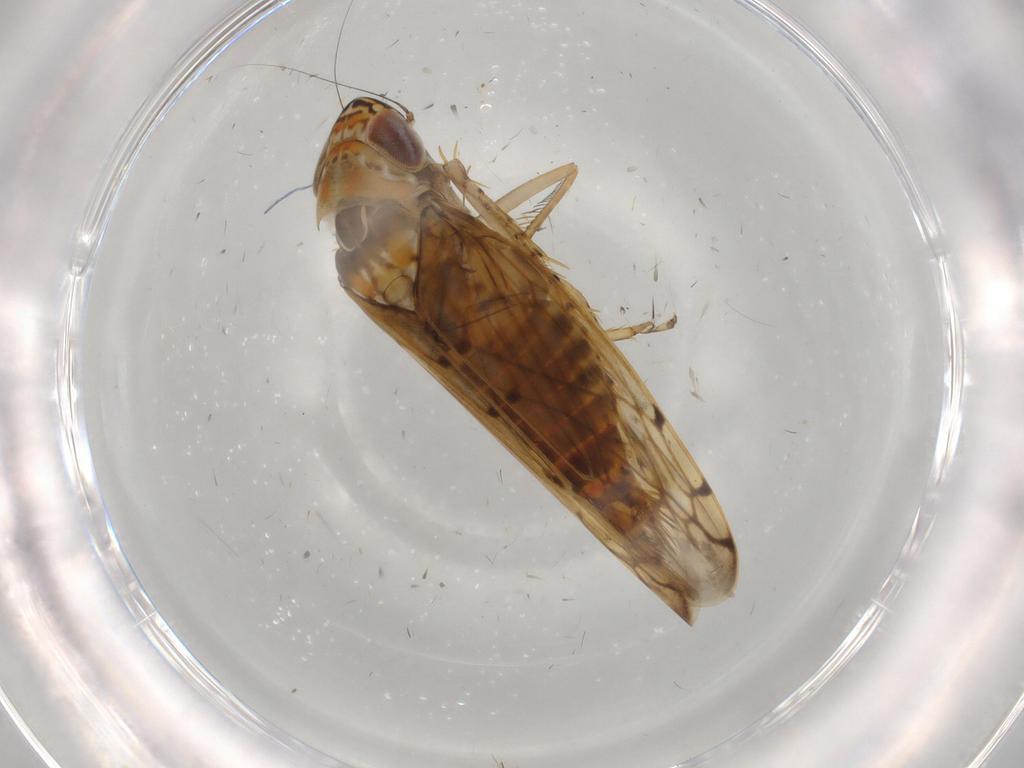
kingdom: Animalia
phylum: Arthropoda
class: Insecta
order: Hemiptera
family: Cicadellidae
